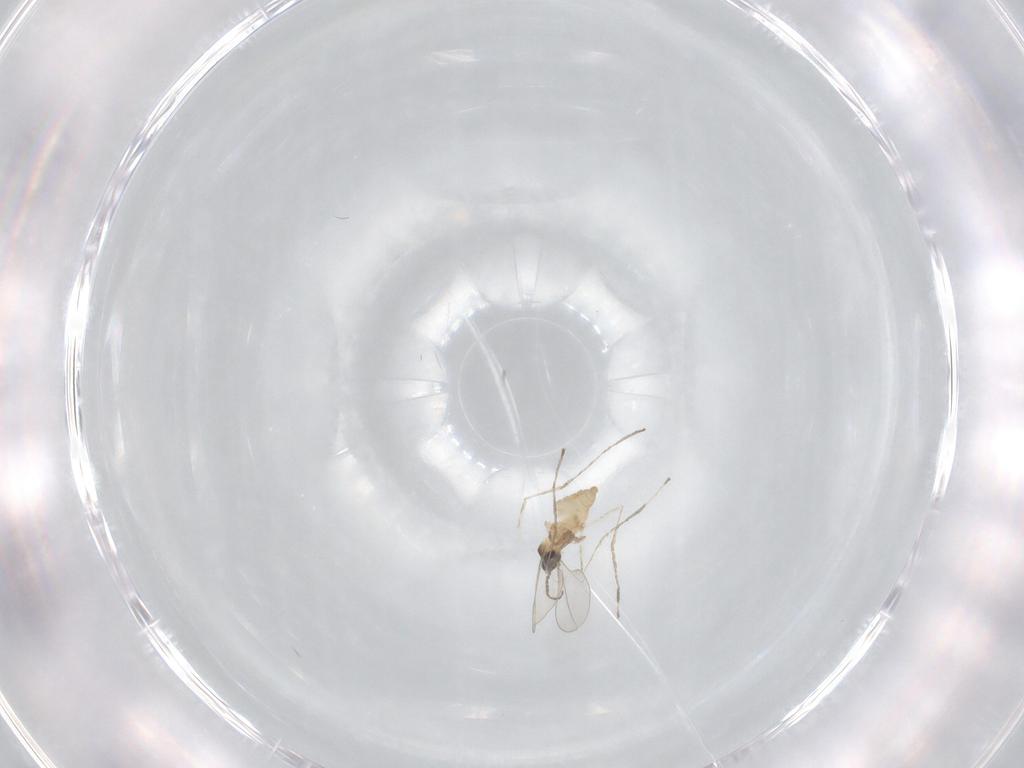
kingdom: Animalia
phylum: Arthropoda
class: Insecta
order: Diptera
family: Cecidomyiidae
